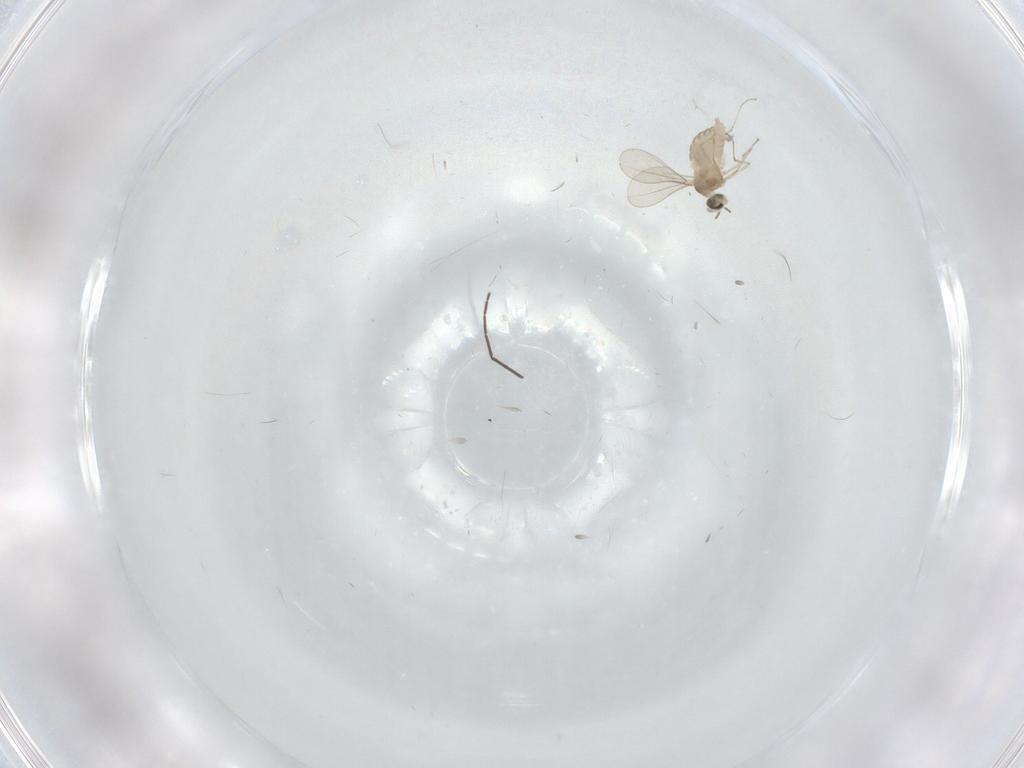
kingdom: Animalia
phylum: Arthropoda
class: Insecta
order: Diptera
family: Cecidomyiidae
